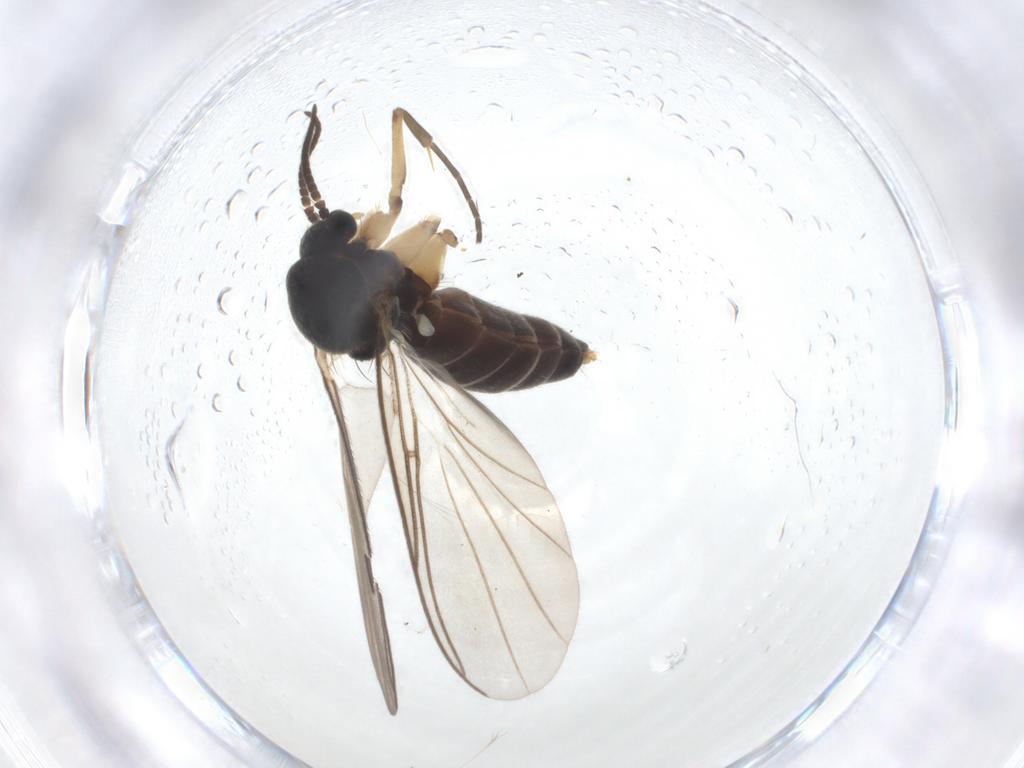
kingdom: Animalia
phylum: Arthropoda
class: Insecta
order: Diptera
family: Mycetophilidae
